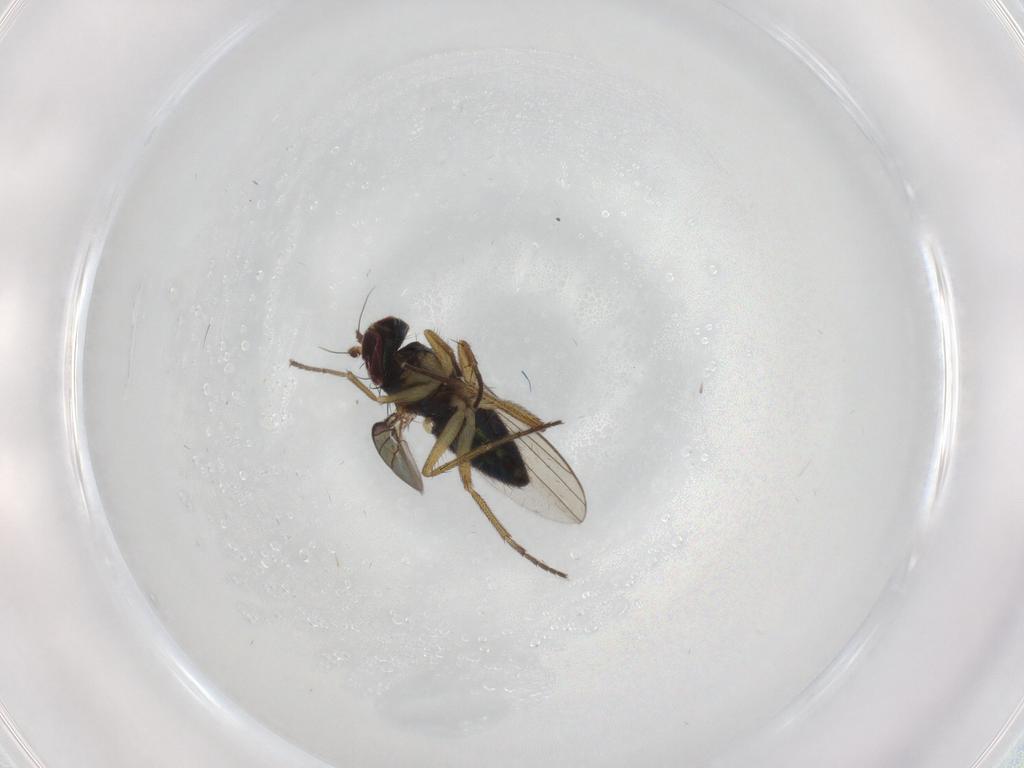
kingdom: Animalia
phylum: Arthropoda
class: Insecta
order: Diptera
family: Dolichopodidae
